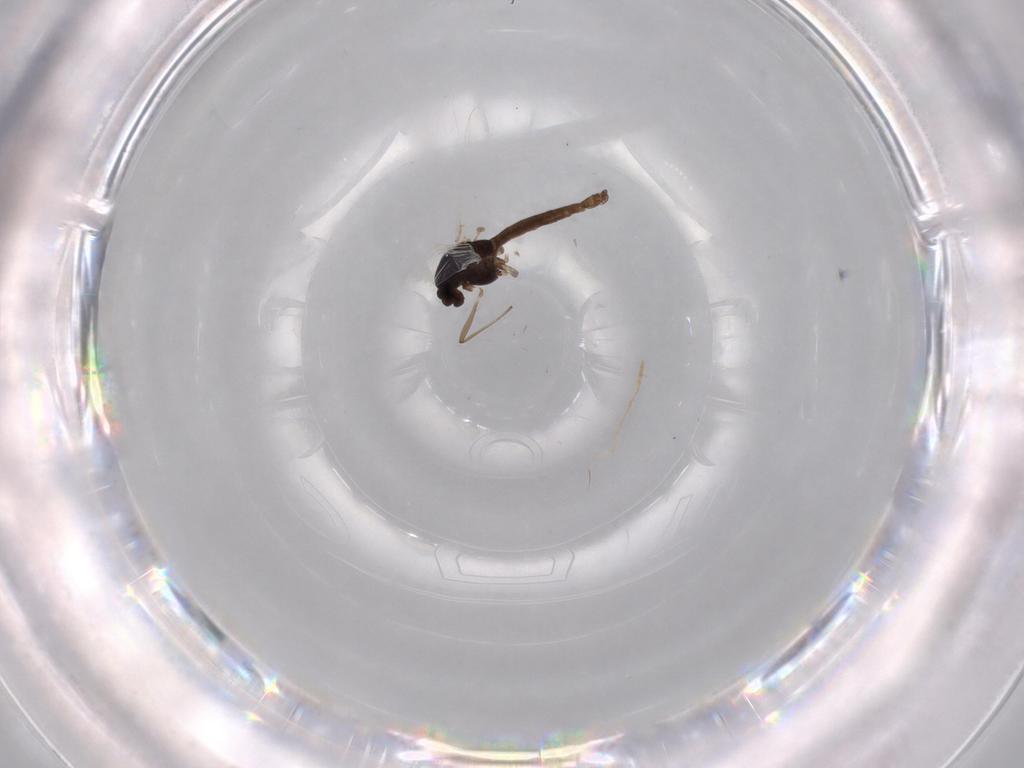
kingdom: Animalia
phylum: Arthropoda
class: Insecta
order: Diptera
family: Chironomidae
